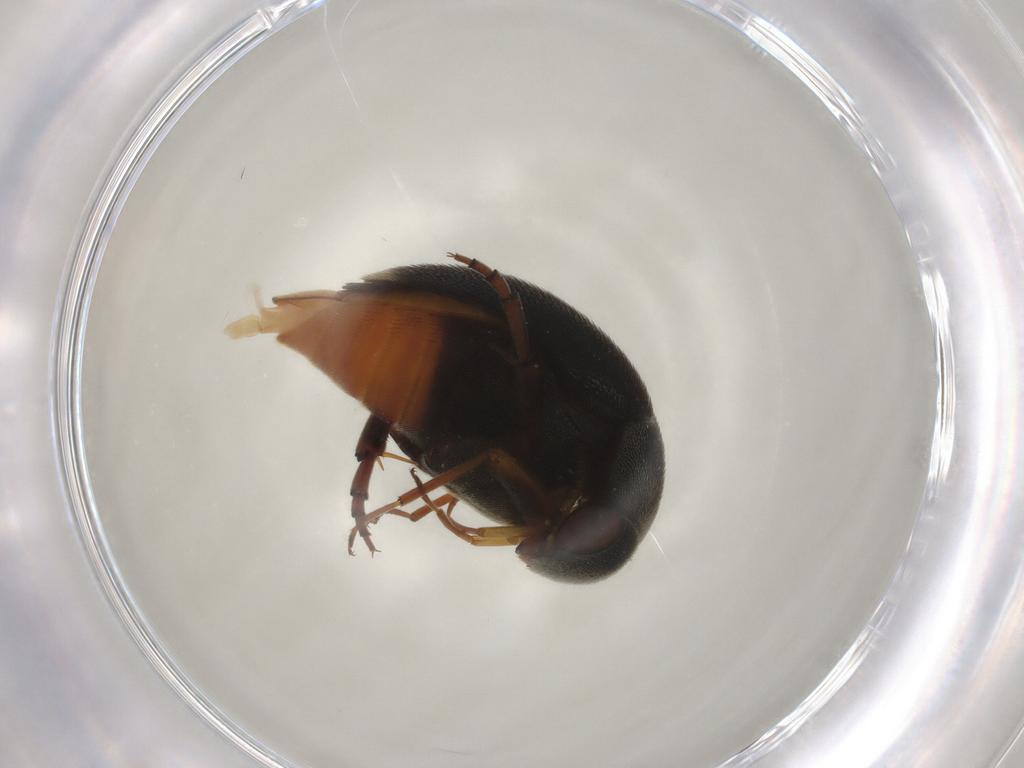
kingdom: Animalia
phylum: Arthropoda
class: Insecta
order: Coleoptera
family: Mordellidae
